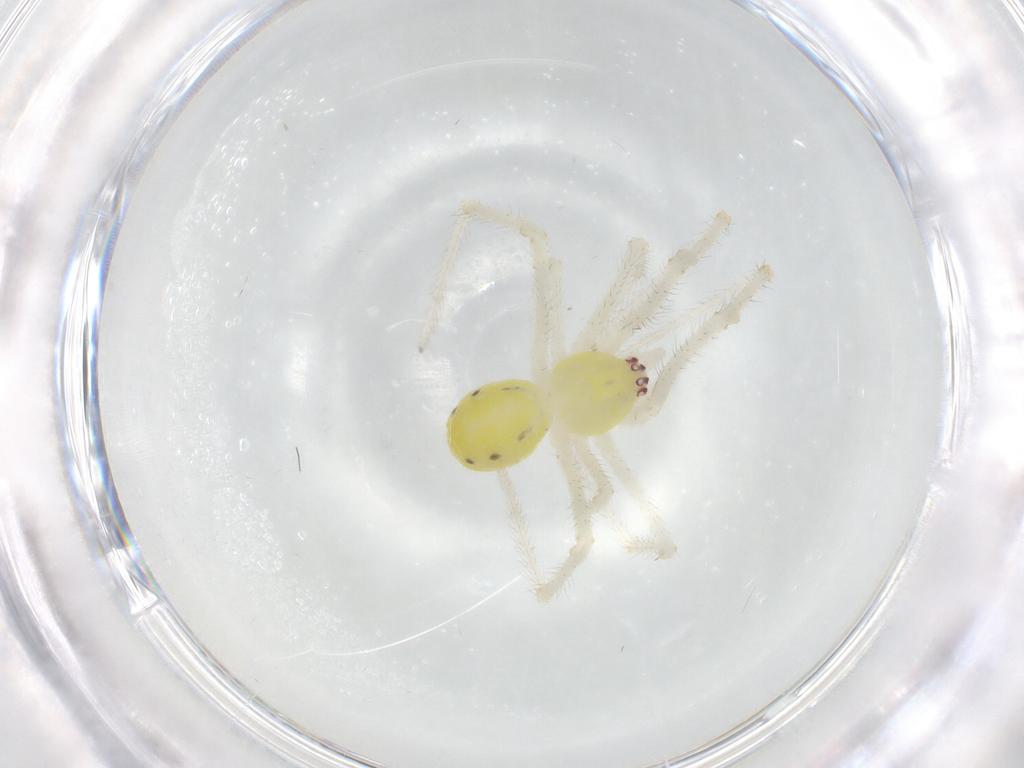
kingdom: Animalia
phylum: Arthropoda
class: Arachnida
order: Araneae
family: Theridiidae
